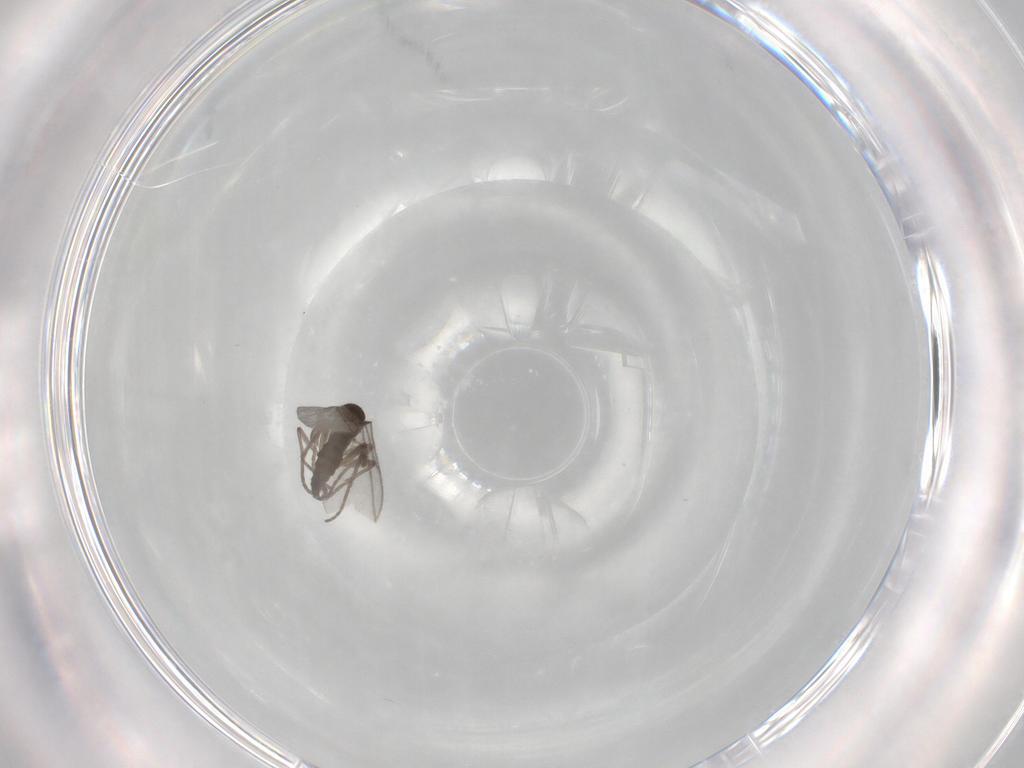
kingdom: Animalia
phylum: Arthropoda
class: Insecta
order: Diptera
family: Sciaridae
